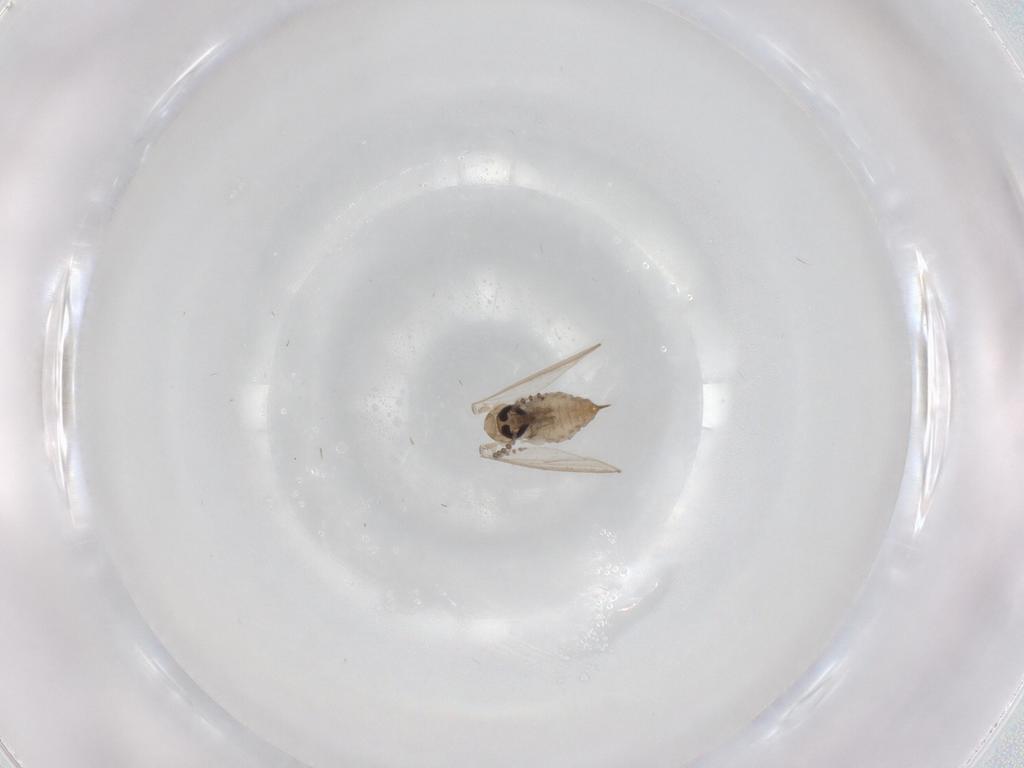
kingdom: Animalia
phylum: Arthropoda
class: Insecta
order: Diptera
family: Psychodidae
